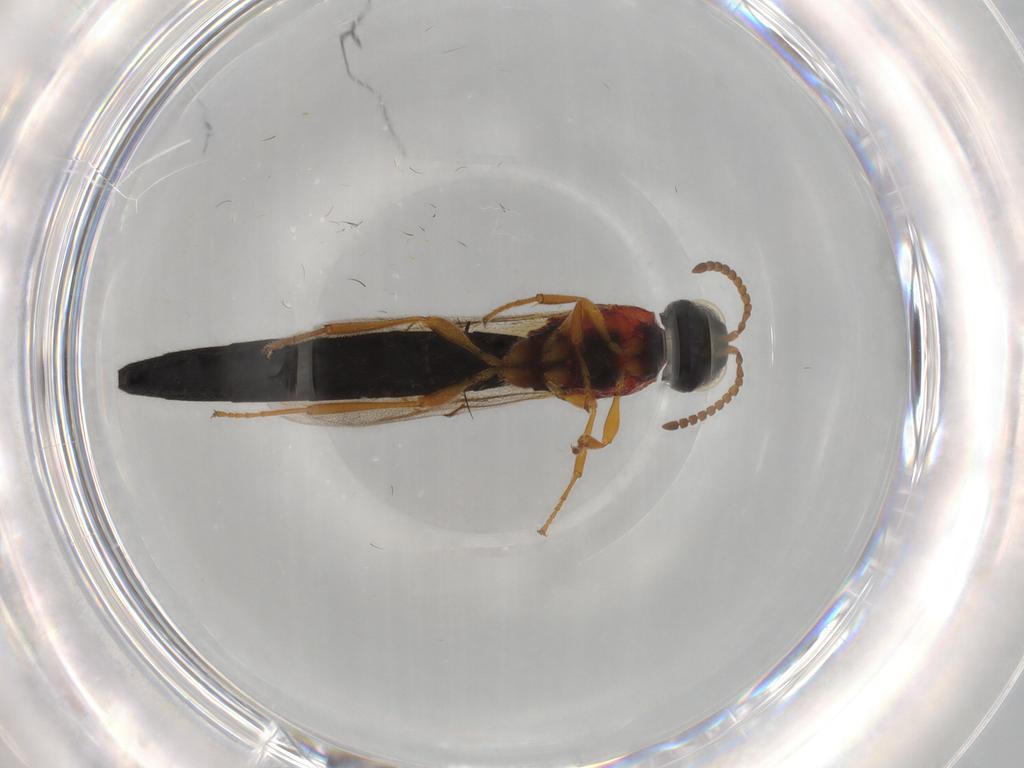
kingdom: Animalia
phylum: Arthropoda
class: Insecta
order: Hymenoptera
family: Scelionidae
